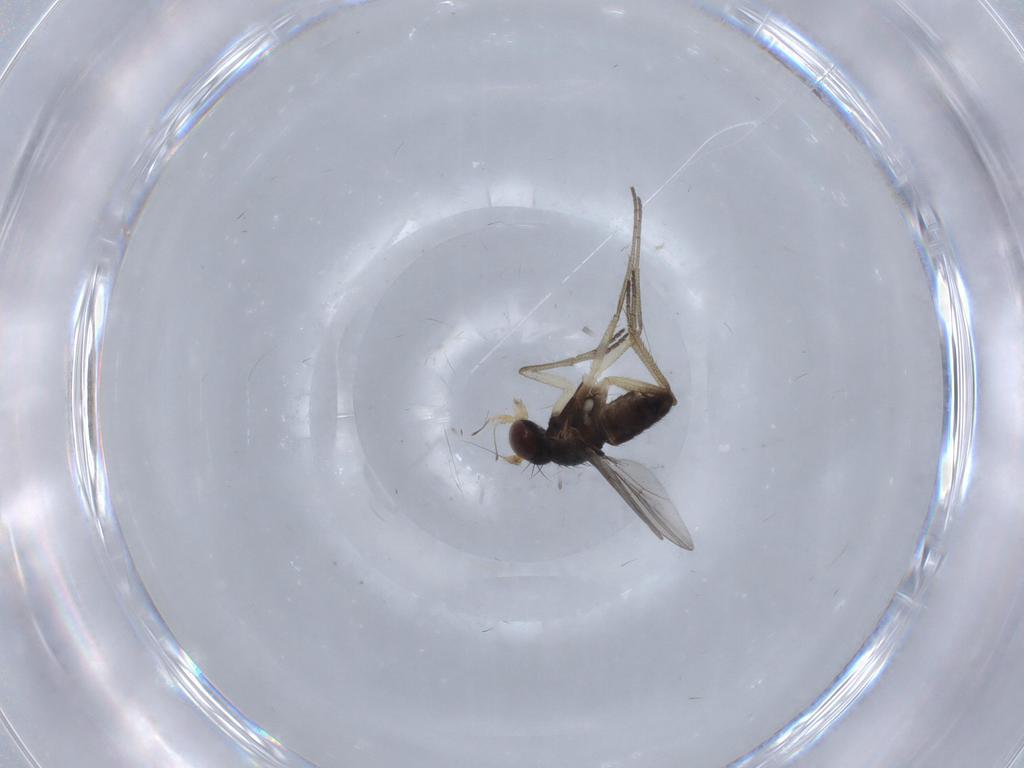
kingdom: Animalia
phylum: Arthropoda
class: Insecta
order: Diptera
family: Dolichopodidae
